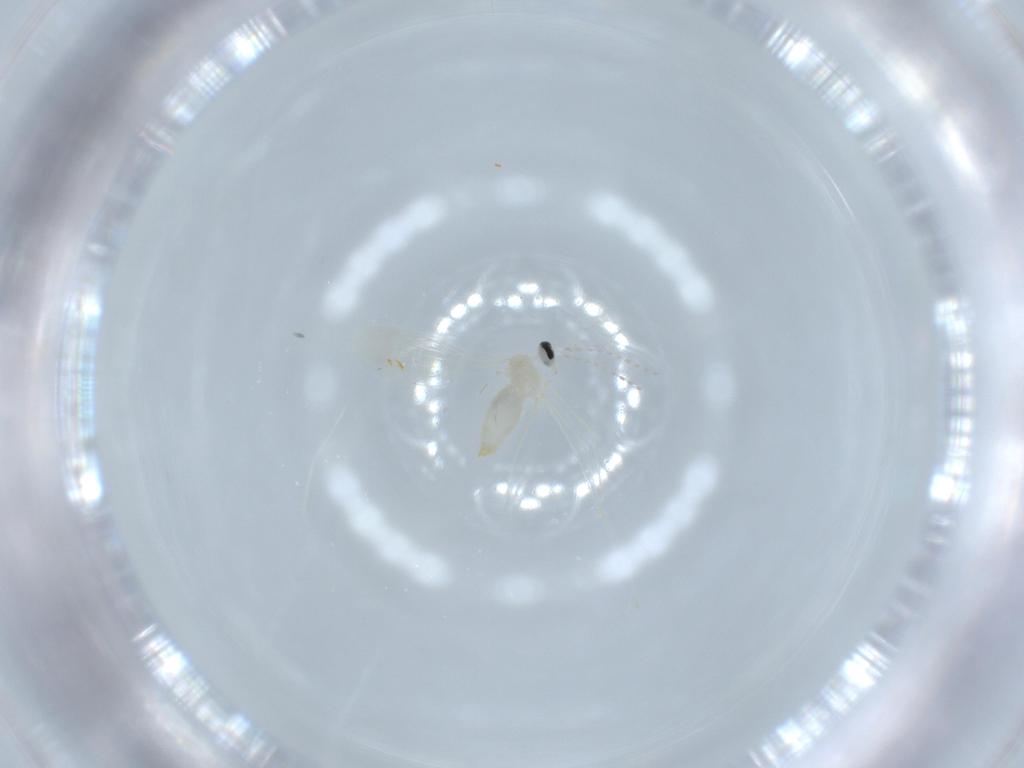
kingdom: Animalia
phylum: Arthropoda
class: Insecta
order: Diptera
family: Cecidomyiidae
